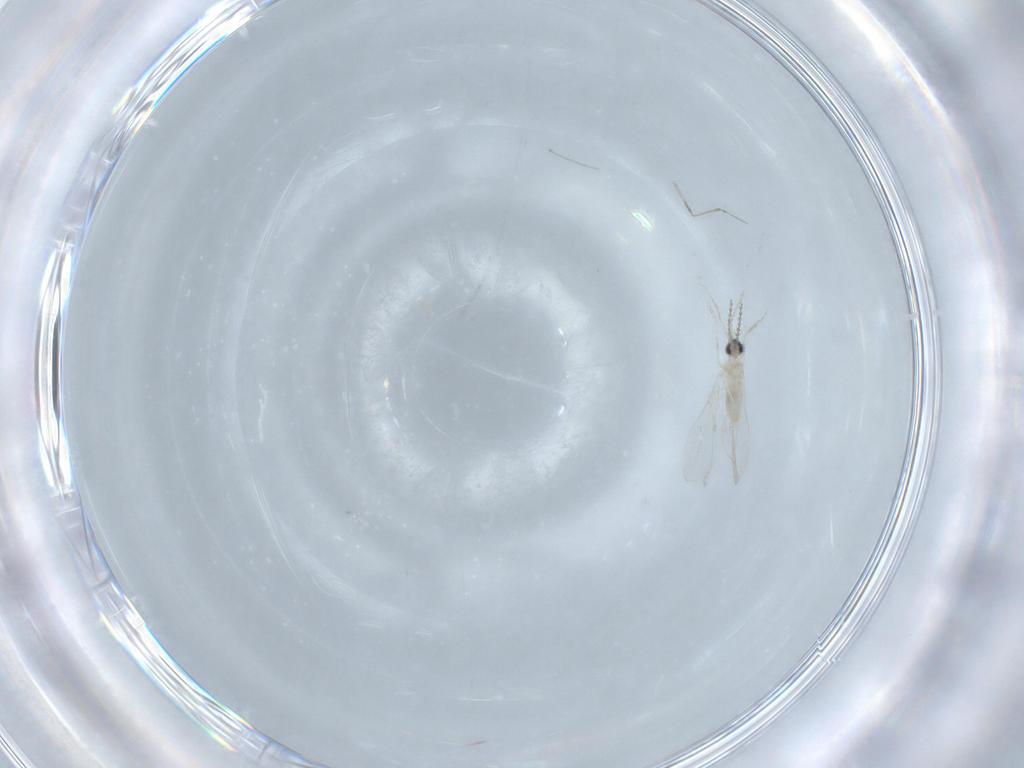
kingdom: Animalia
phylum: Arthropoda
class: Insecta
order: Diptera
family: Cecidomyiidae
